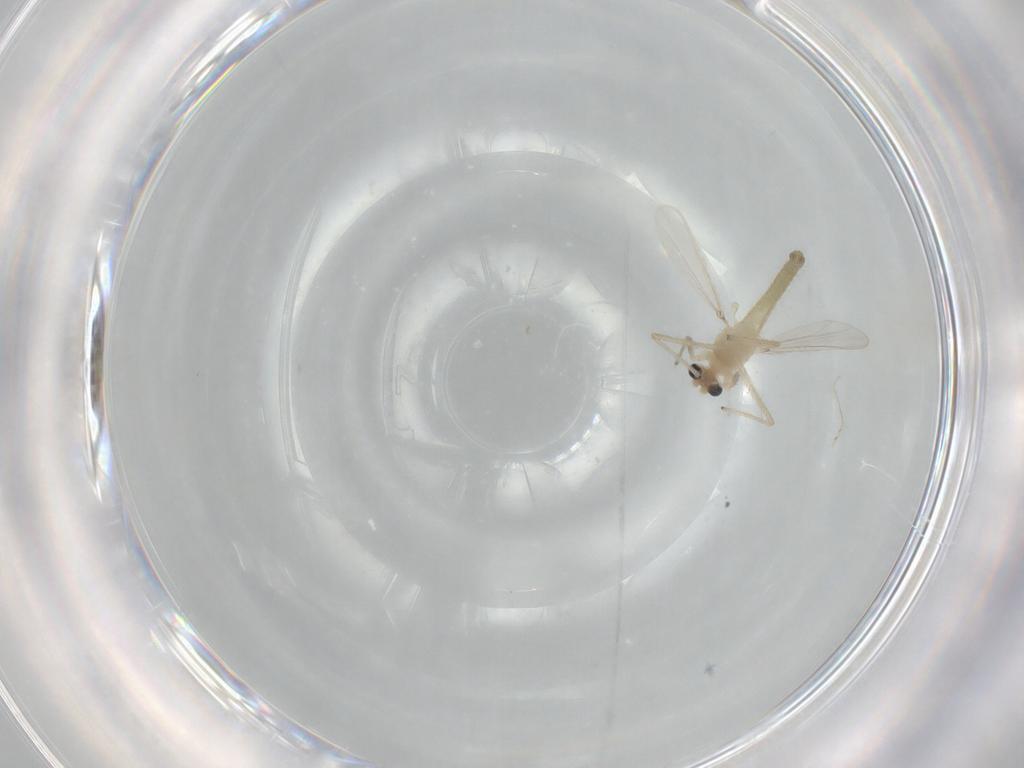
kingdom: Animalia
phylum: Arthropoda
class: Insecta
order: Diptera
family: Chironomidae
